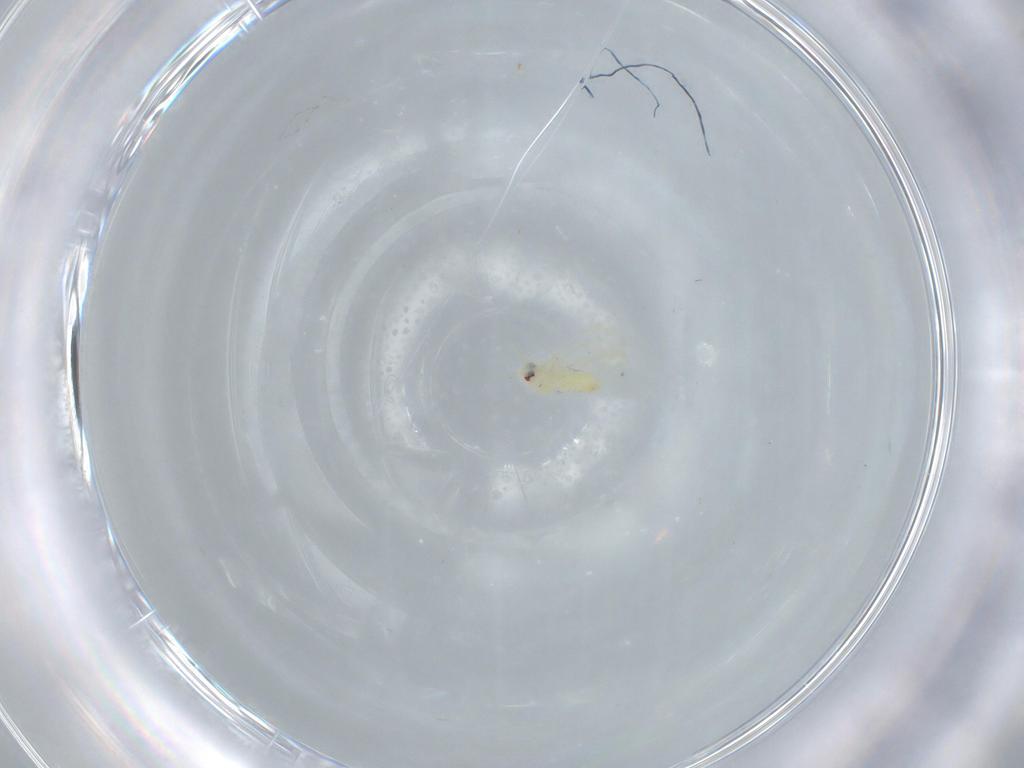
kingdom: Animalia
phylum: Arthropoda
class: Insecta
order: Hemiptera
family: Aleyrodidae
